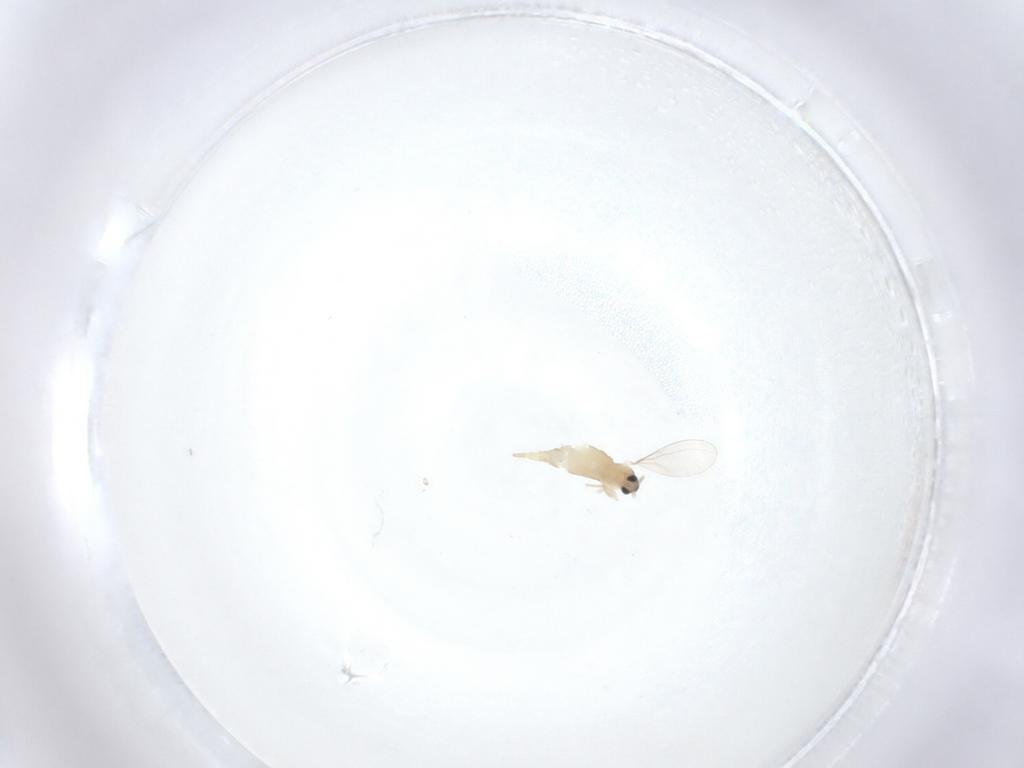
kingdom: Animalia
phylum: Arthropoda
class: Insecta
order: Diptera
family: Cecidomyiidae
